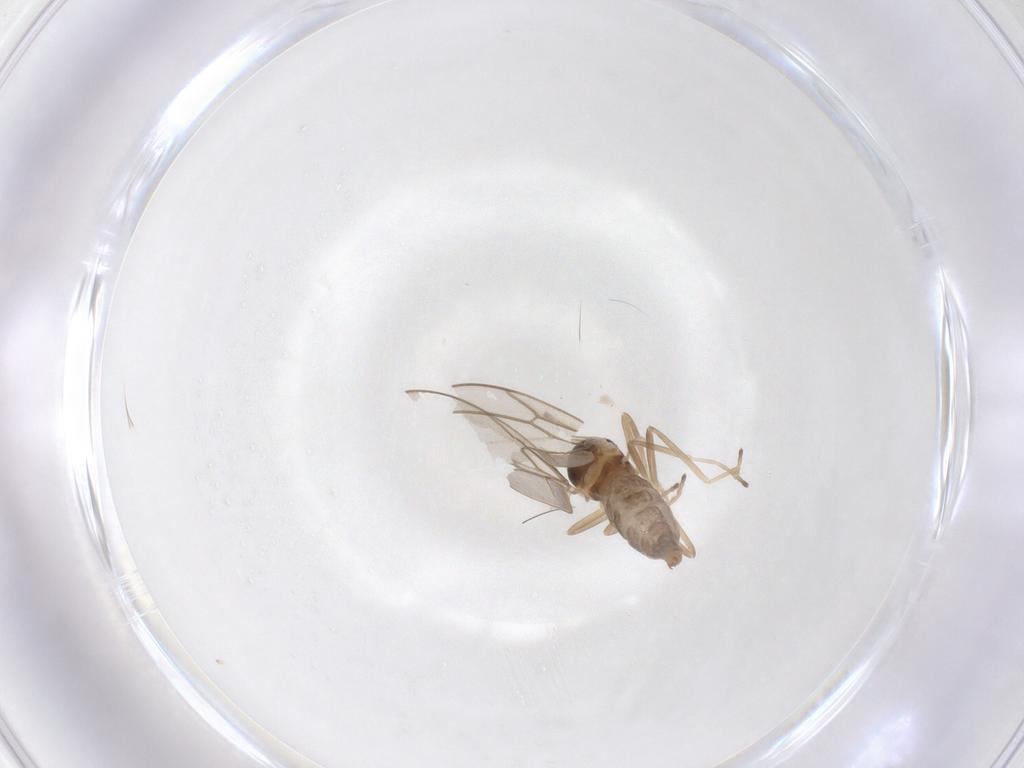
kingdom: Animalia
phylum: Arthropoda
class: Insecta
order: Diptera
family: Cecidomyiidae
